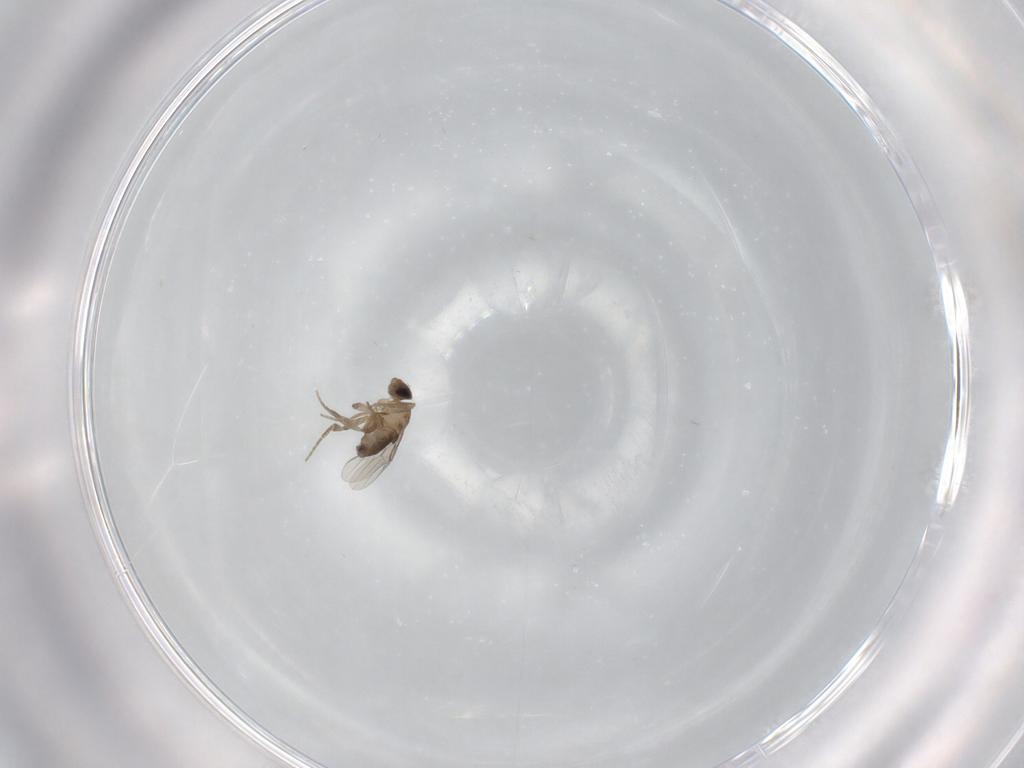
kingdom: Animalia
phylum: Arthropoda
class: Insecta
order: Diptera
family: Phoridae
